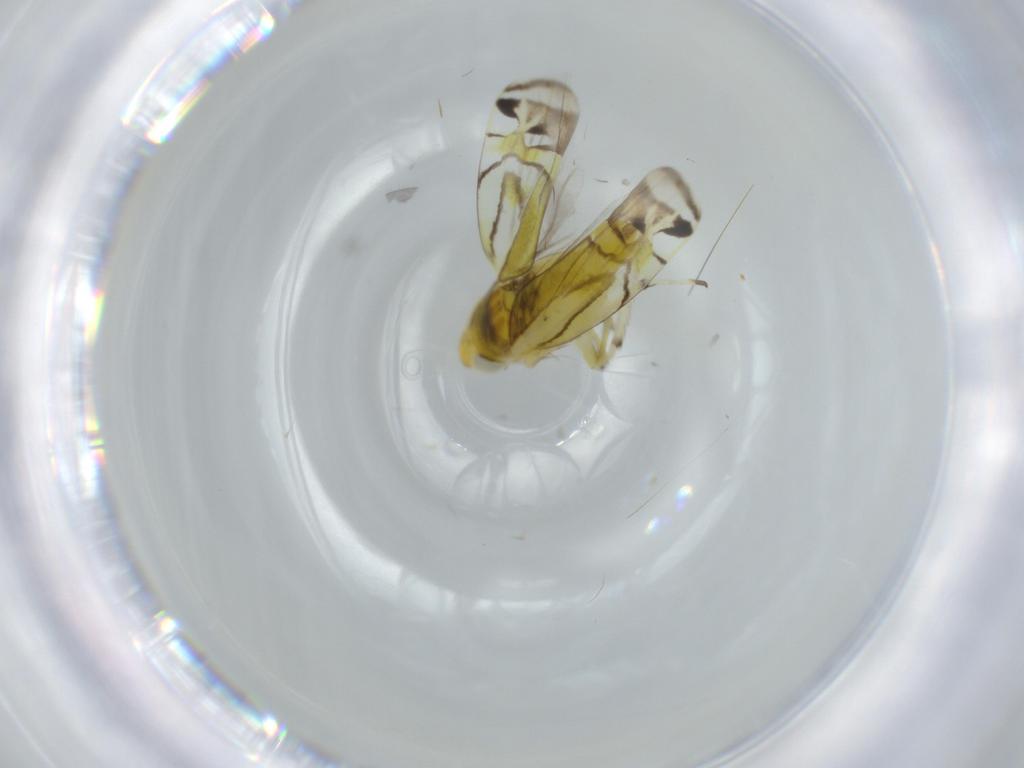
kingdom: Animalia
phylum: Arthropoda
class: Insecta
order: Hemiptera
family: Cicadellidae
